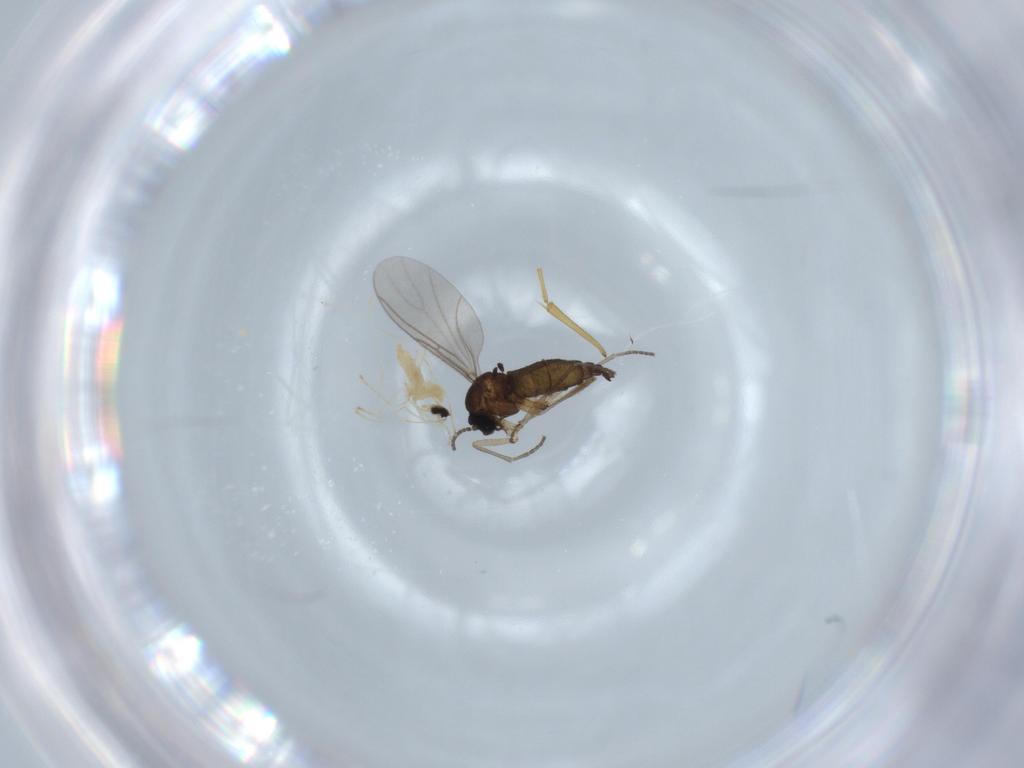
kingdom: Animalia
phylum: Arthropoda
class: Insecta
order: Diptera
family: Sciaridae
